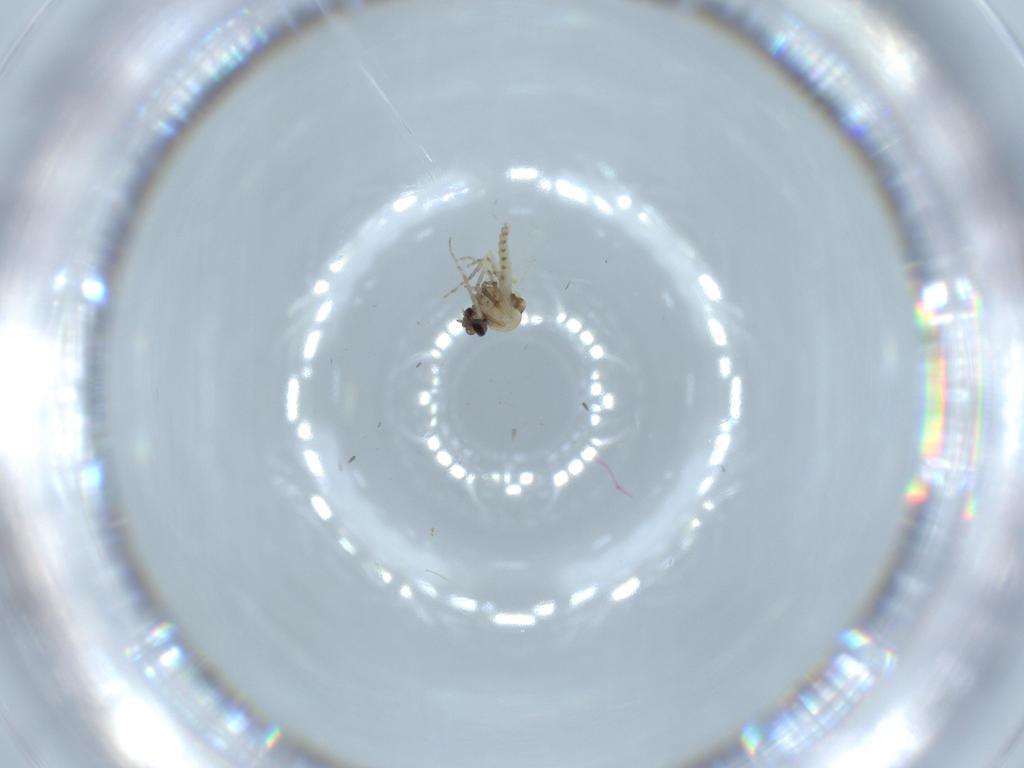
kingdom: Animalia
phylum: Arthropoda
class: Insecta
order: Diptera
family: Ceratopogonidae
